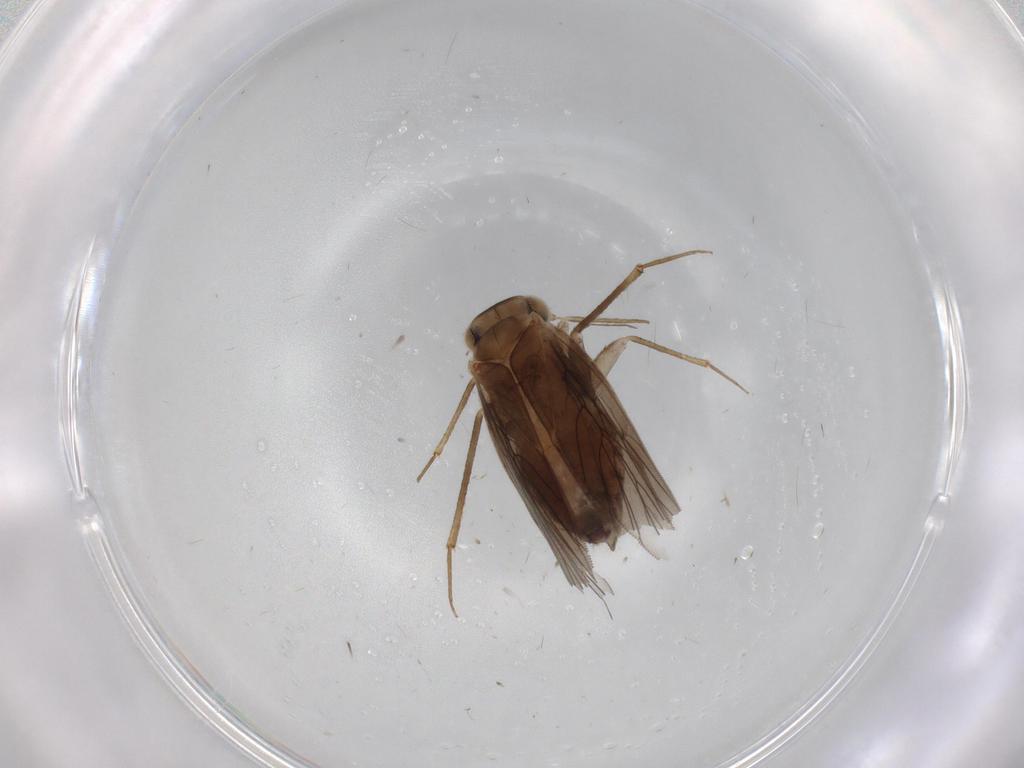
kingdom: Animalia
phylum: Arthropoda
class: Insecta
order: Psocodea
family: Lepidopsocidae
